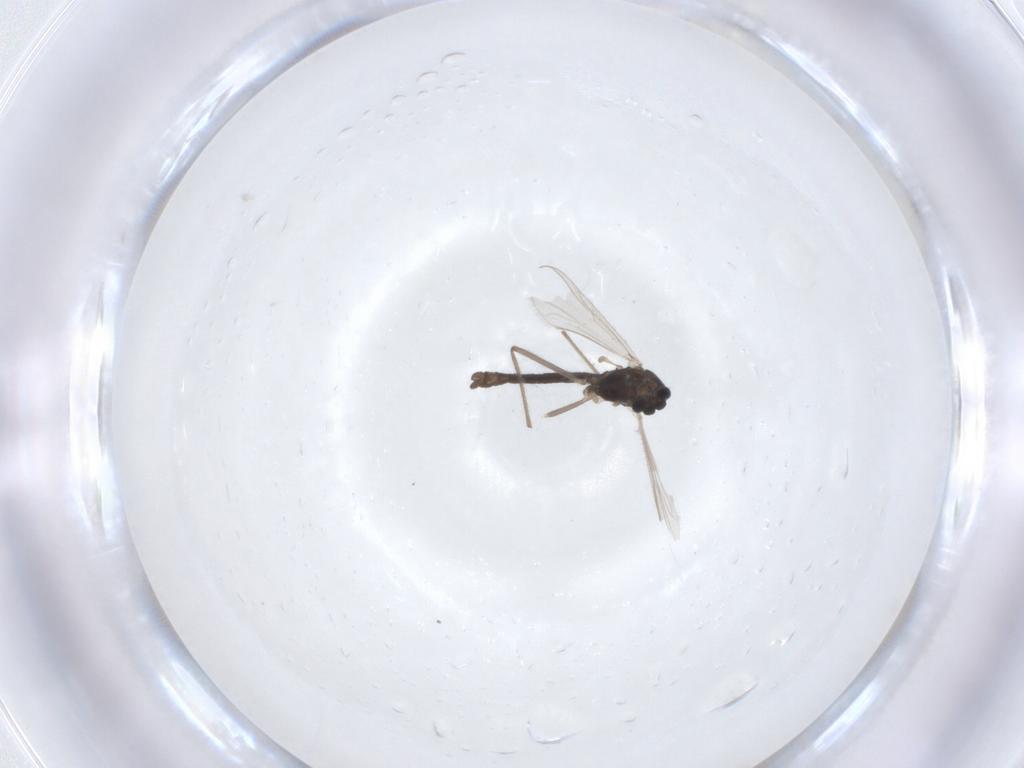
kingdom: Animalia
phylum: Arthropoda
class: Insecta
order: Diptera
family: Chironomidae
